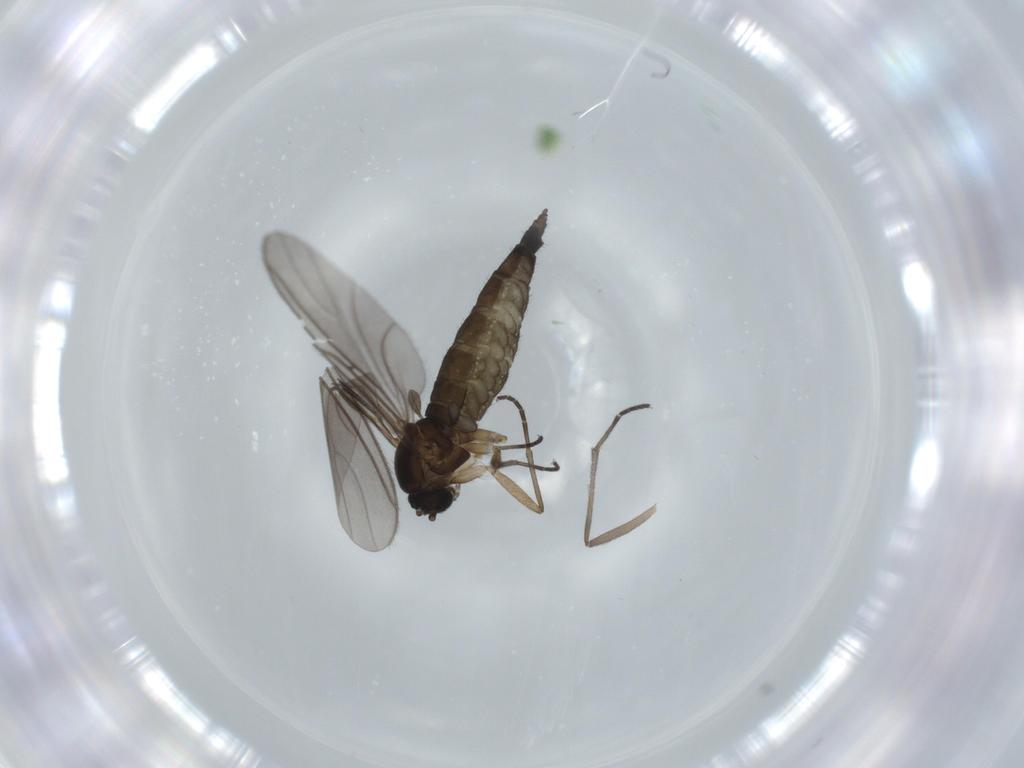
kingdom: Animalia
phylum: Arthropoda
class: Insecta
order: Diptera
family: Sciaridae
